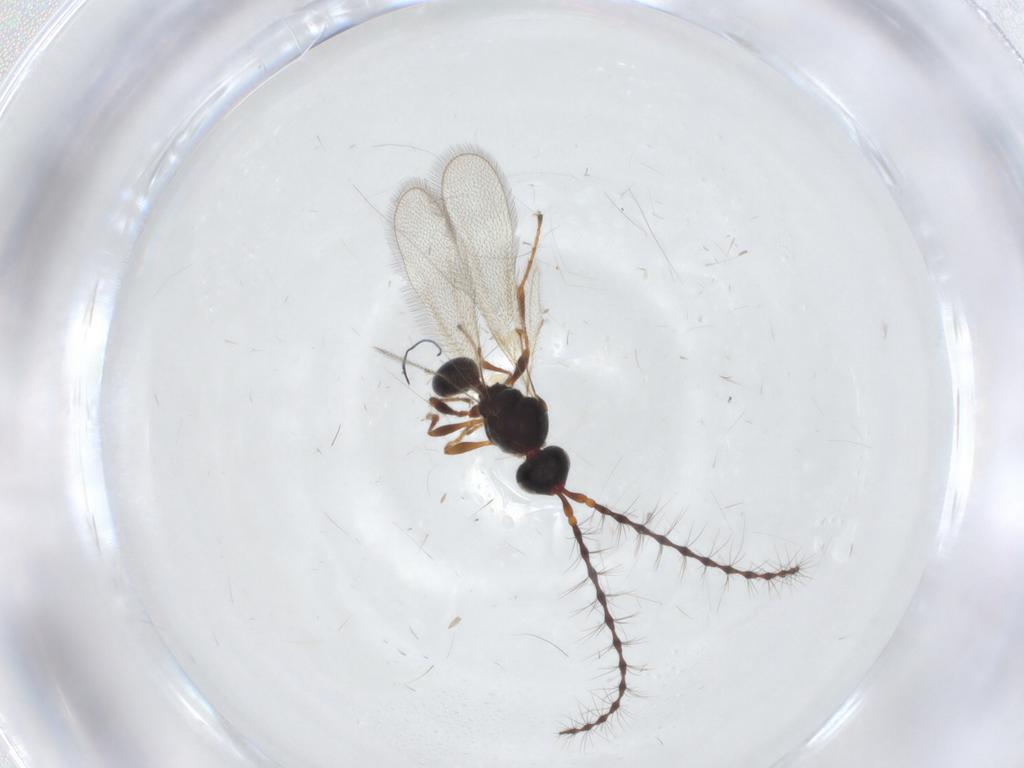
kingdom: Animalia
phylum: Arthropoda
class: Insecta
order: Hymenoptera
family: Diapriidae
